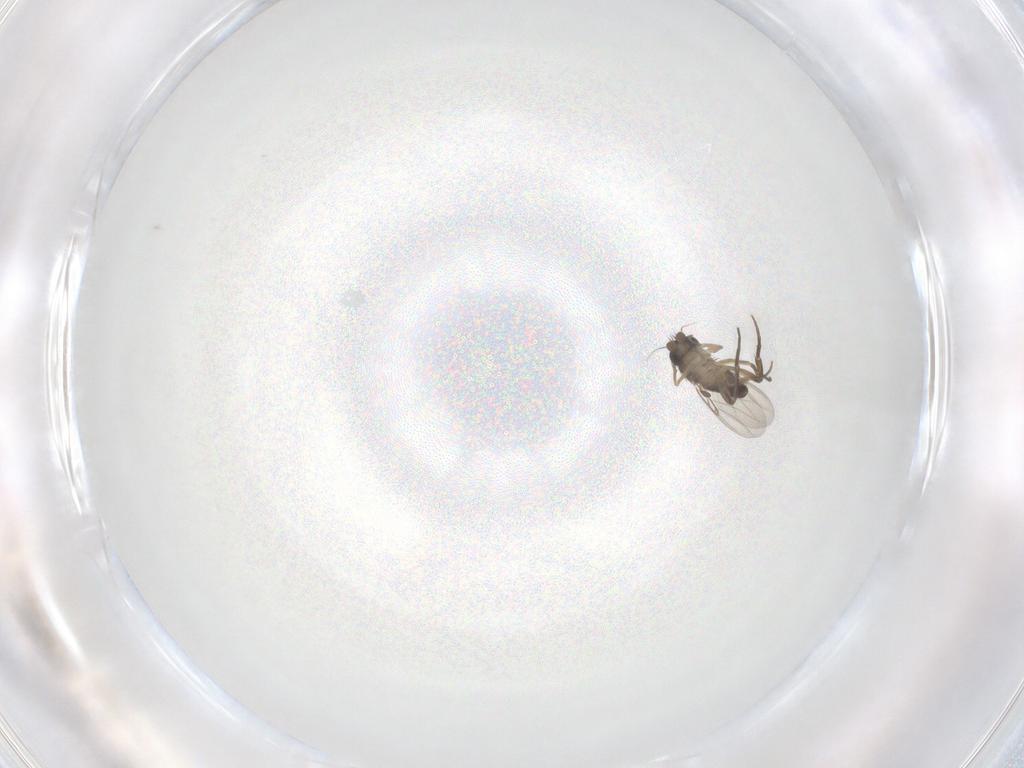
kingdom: Animalia
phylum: Arthropoda
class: Insecta
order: Diptera
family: Phoridae
